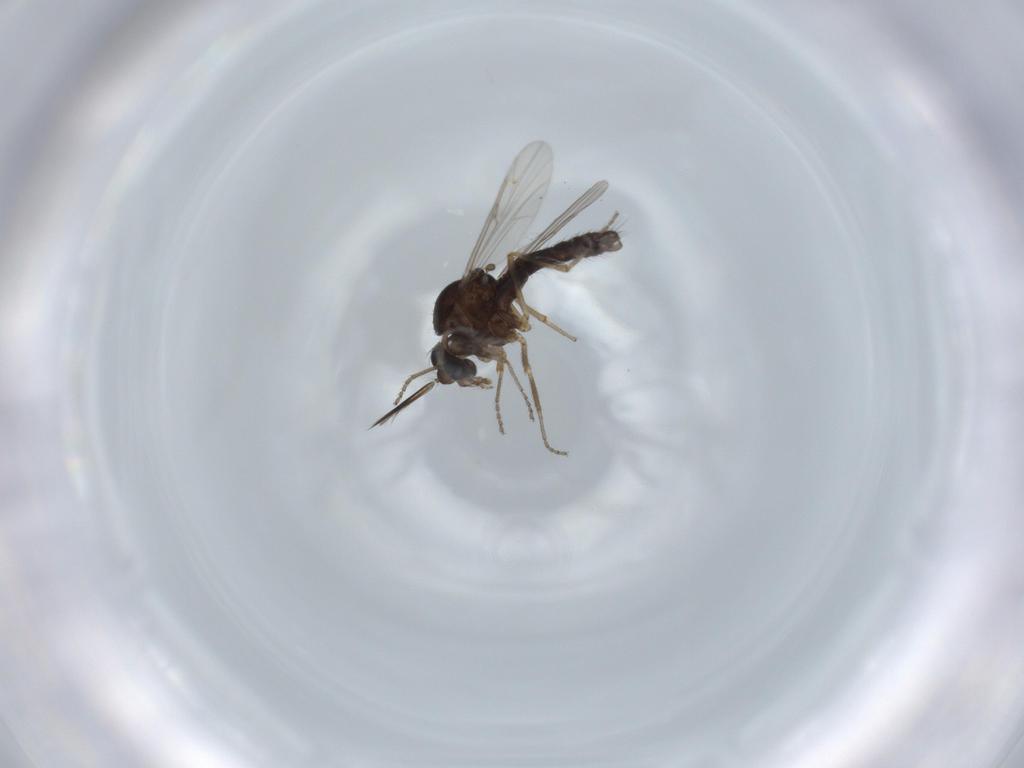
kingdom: Animalia
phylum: Arthropoda
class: Insecta
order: Diptera
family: Ceratopogonidae
